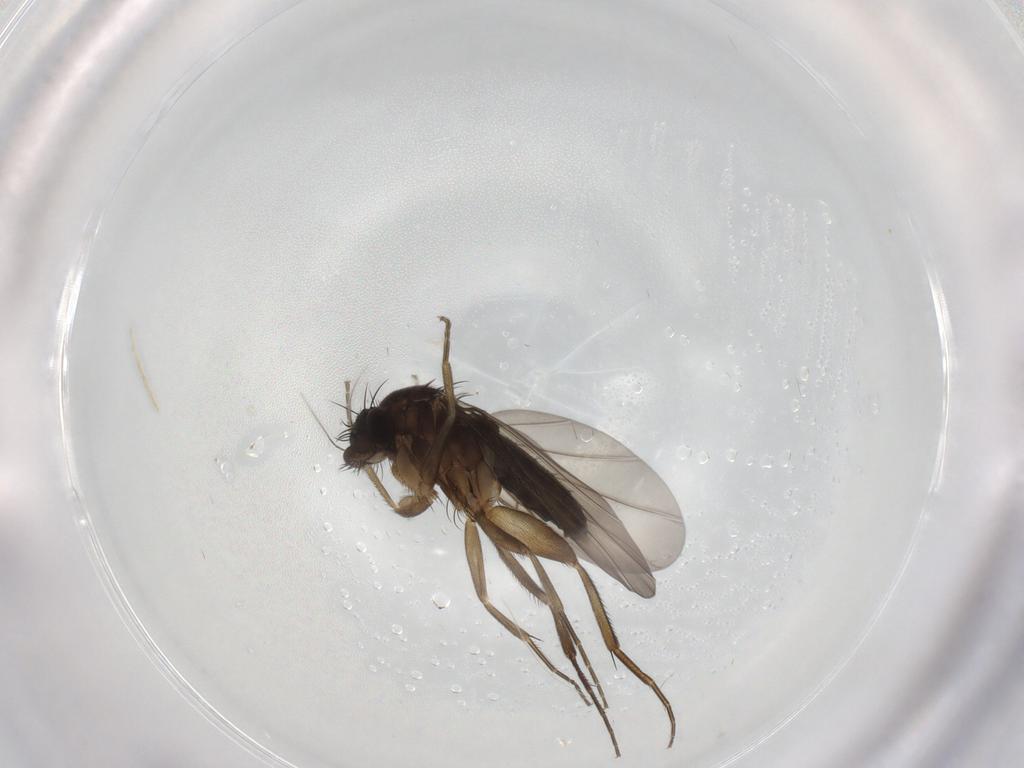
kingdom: Animalia
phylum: Arthropoda
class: Insecta
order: Diptera
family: Phoridae
